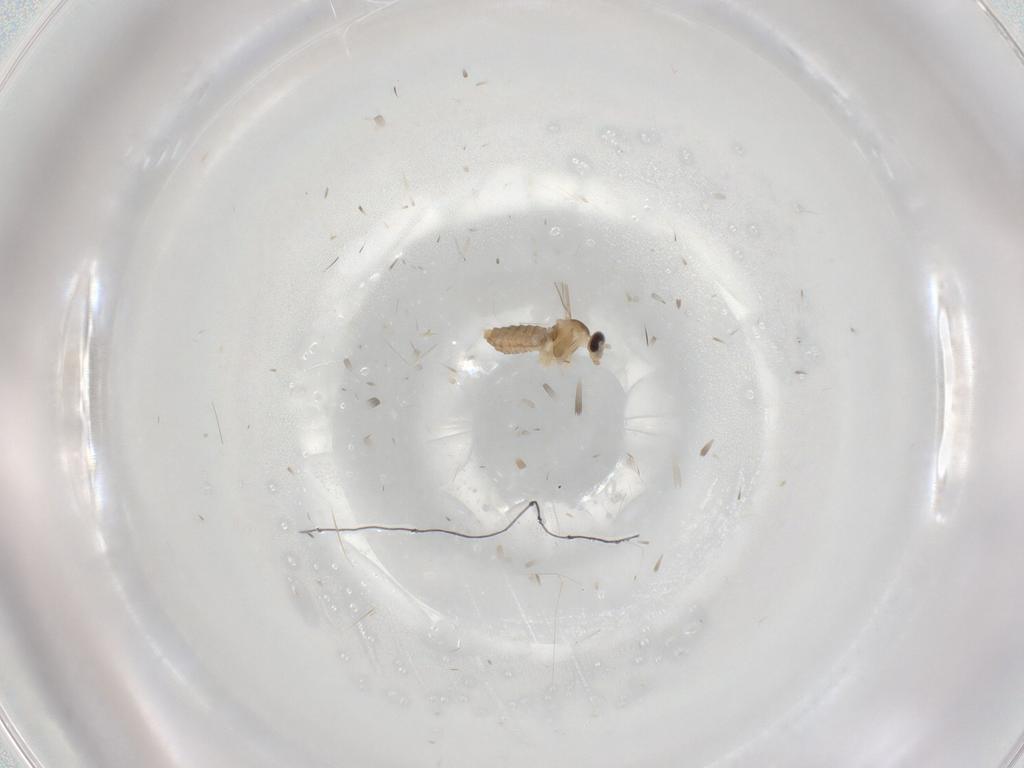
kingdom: Animalia
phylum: Arthropoda
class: Insecta
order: Diptera
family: Cecidomyiidae
